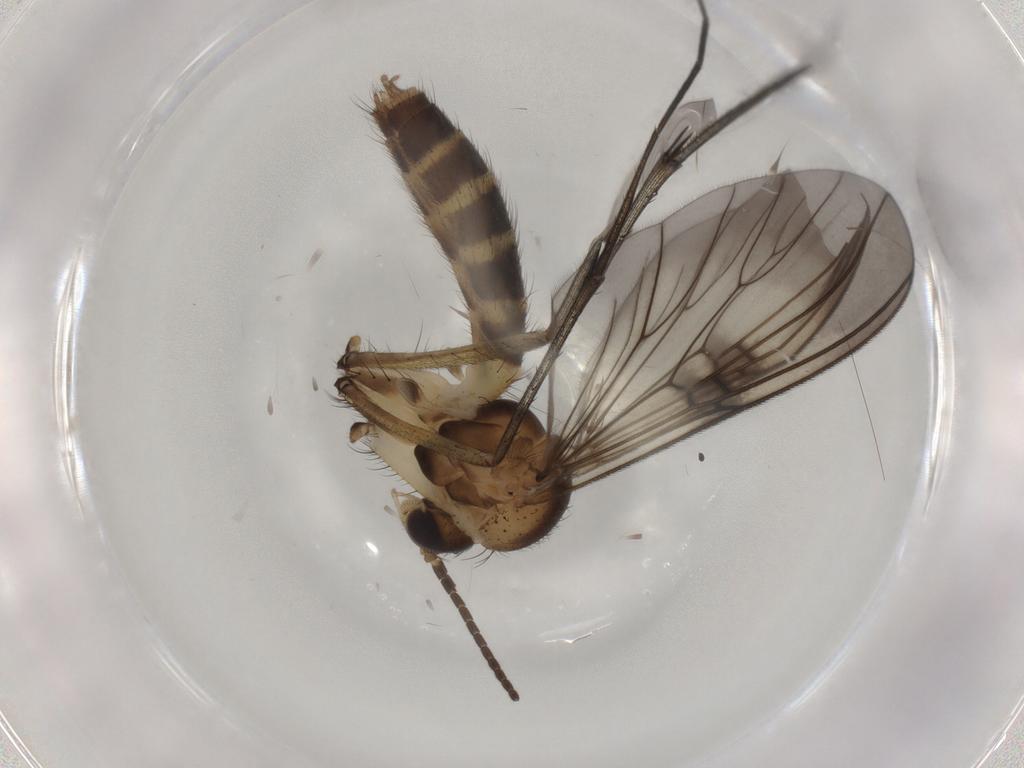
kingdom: Animalia
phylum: Arthropoda
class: Insecta
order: Diptera
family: Mycetophilidae
